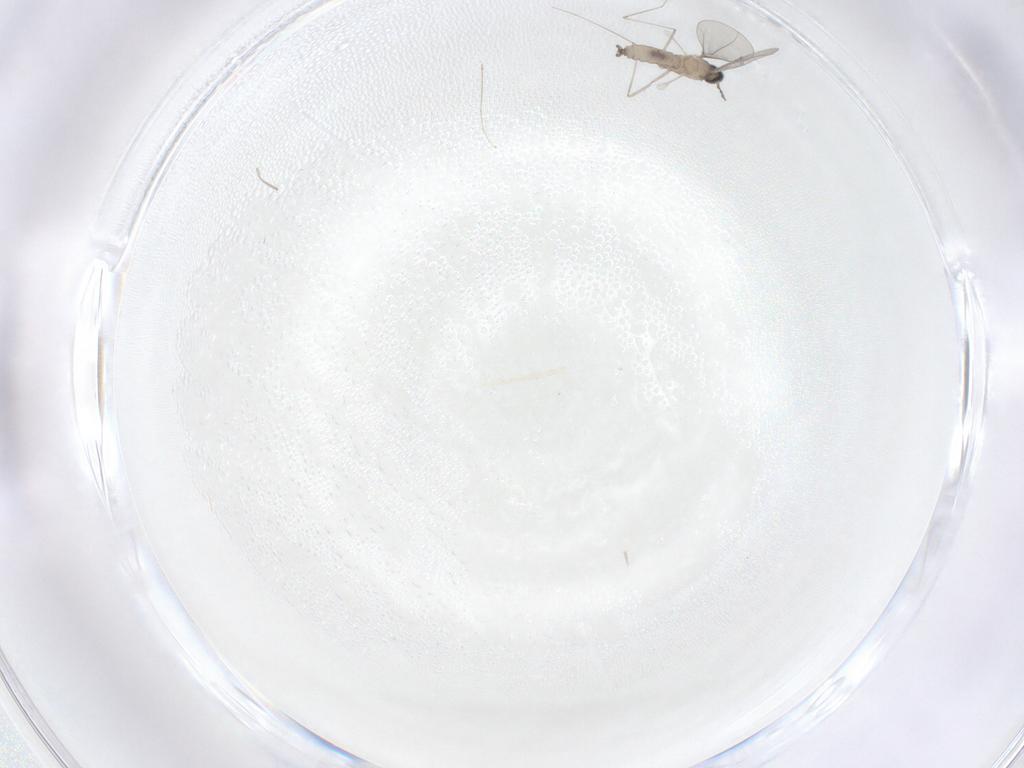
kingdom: Animalia
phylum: Arthropoda
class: Insecta
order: Diptera
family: Cecidomyiidae
